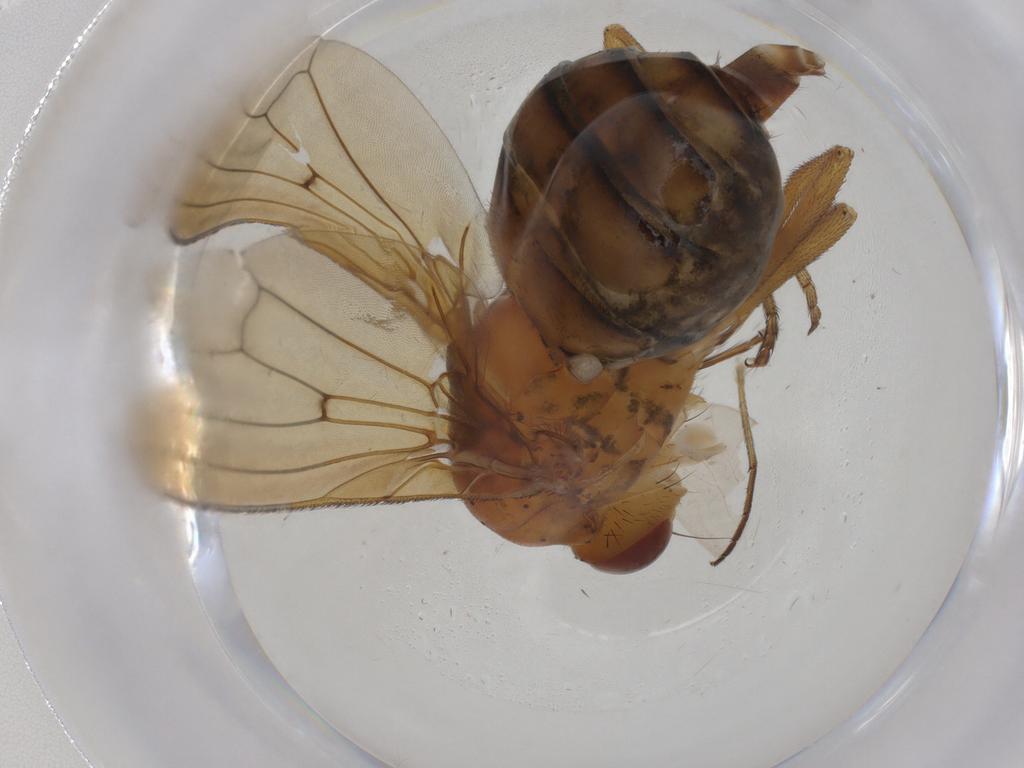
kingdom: Animalia
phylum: Arthropoda
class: Insecta
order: Diptera
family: Dolichopodidae
